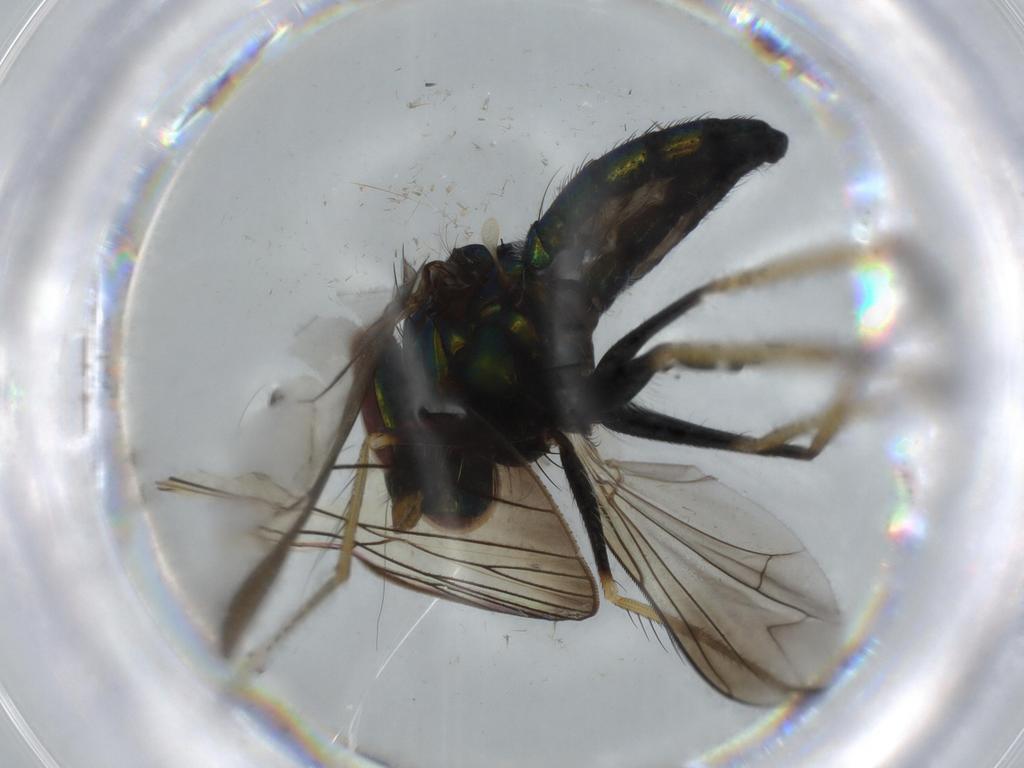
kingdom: Animalia
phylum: Arthropoda
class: Insecta
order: Diptera
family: Dolichopodidae
